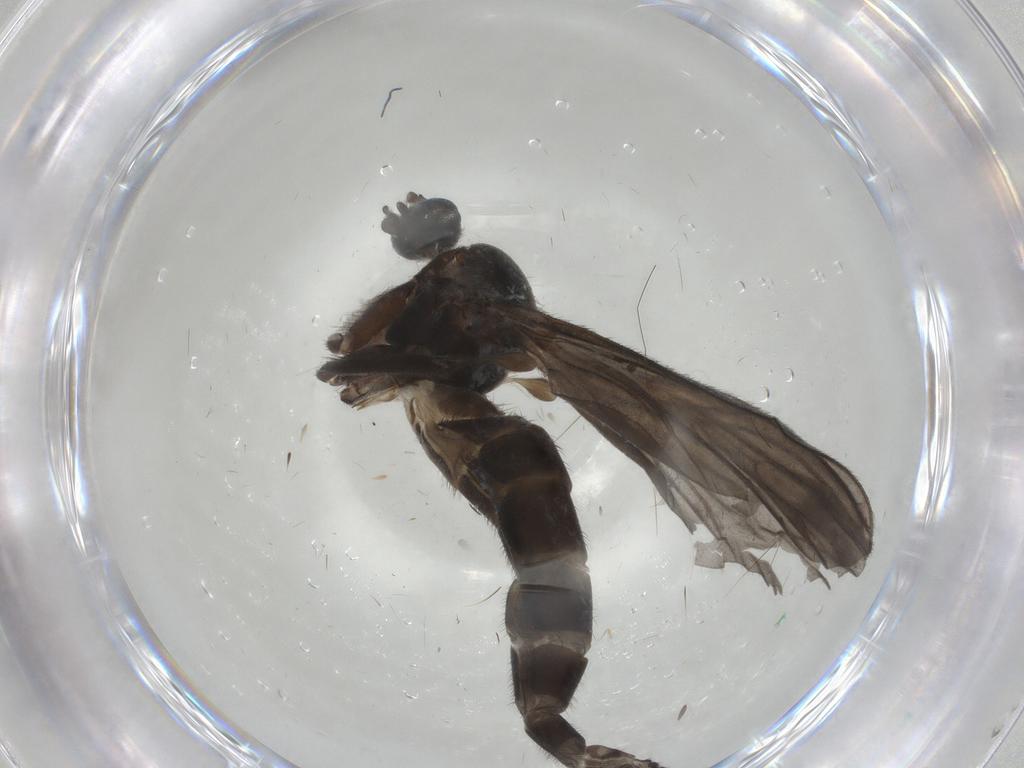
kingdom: Animalia
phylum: Arthropoda
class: Insecta
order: Diptera
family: Sciaridae
